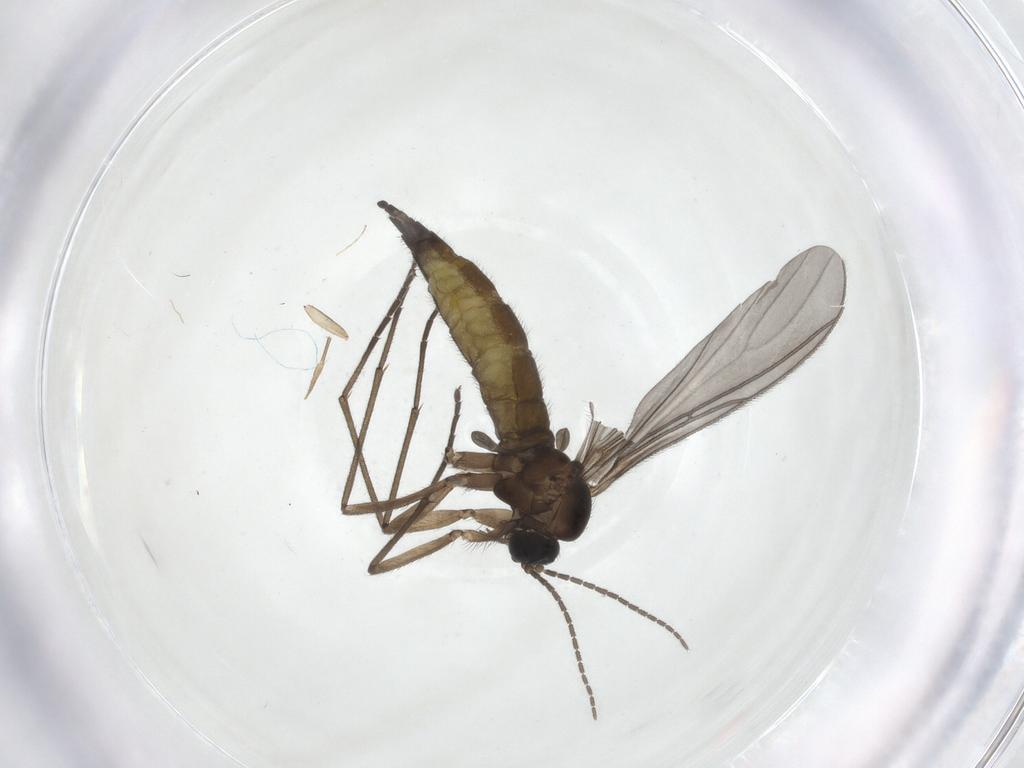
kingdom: Animalia
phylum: Arthropoda
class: Insecta
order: Diptera
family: Sciaridae
